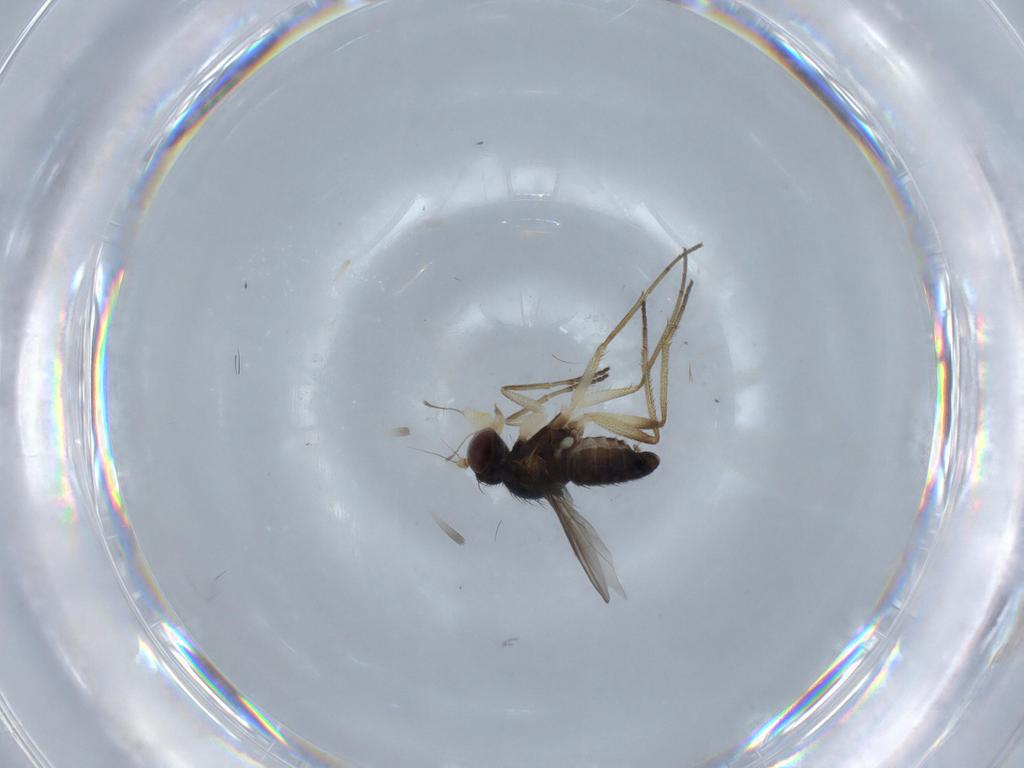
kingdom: Animalia
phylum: Arthropoda
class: Insecta
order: Diptera
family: Dolichopodidae
